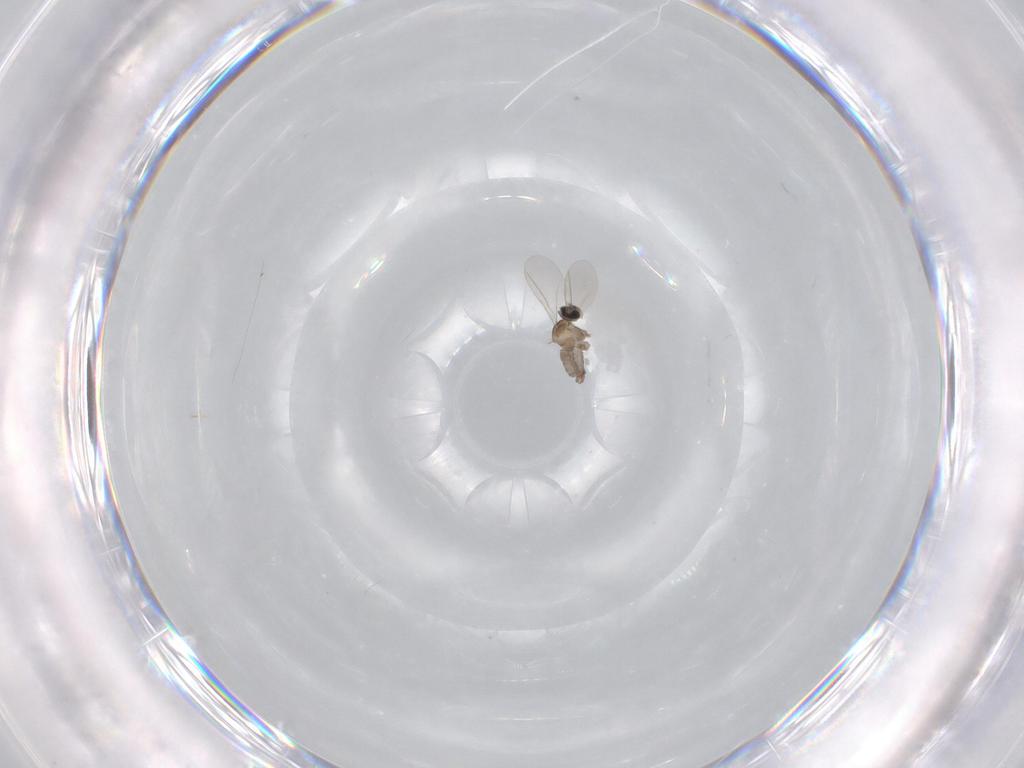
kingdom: Animalia
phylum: Arthropoda
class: Insecta
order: Diptera
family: Cecidomyiidae
